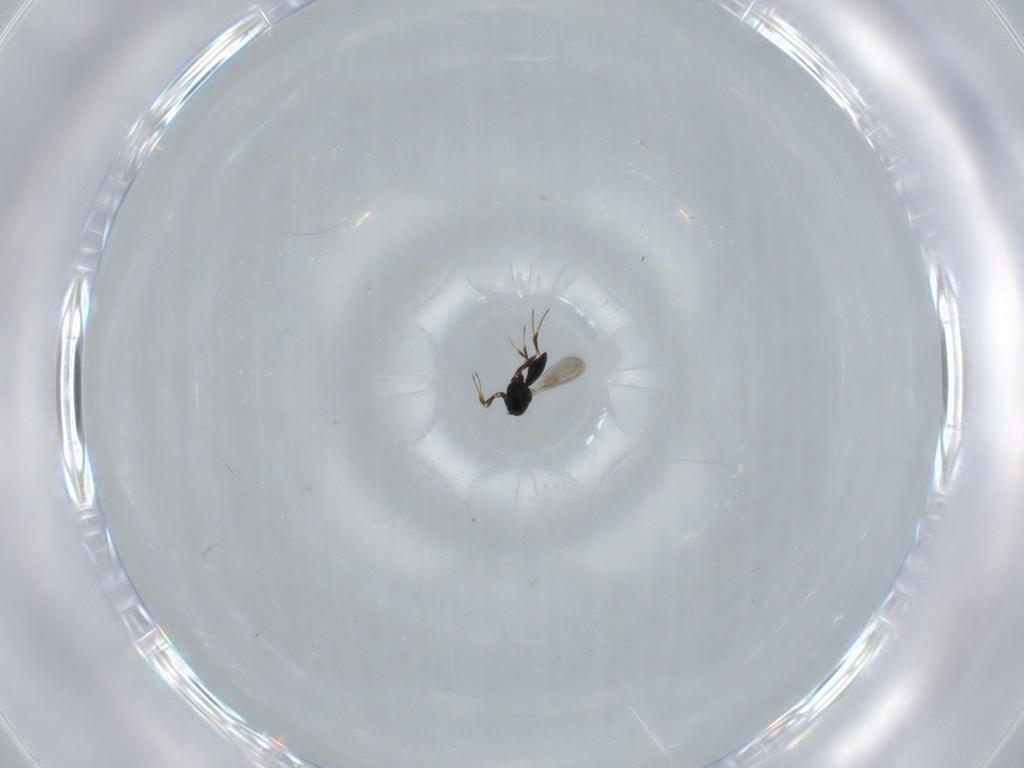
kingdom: Animalia
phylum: Arthropoda
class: Insecta
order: Hymenoptera
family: Scelionidae
